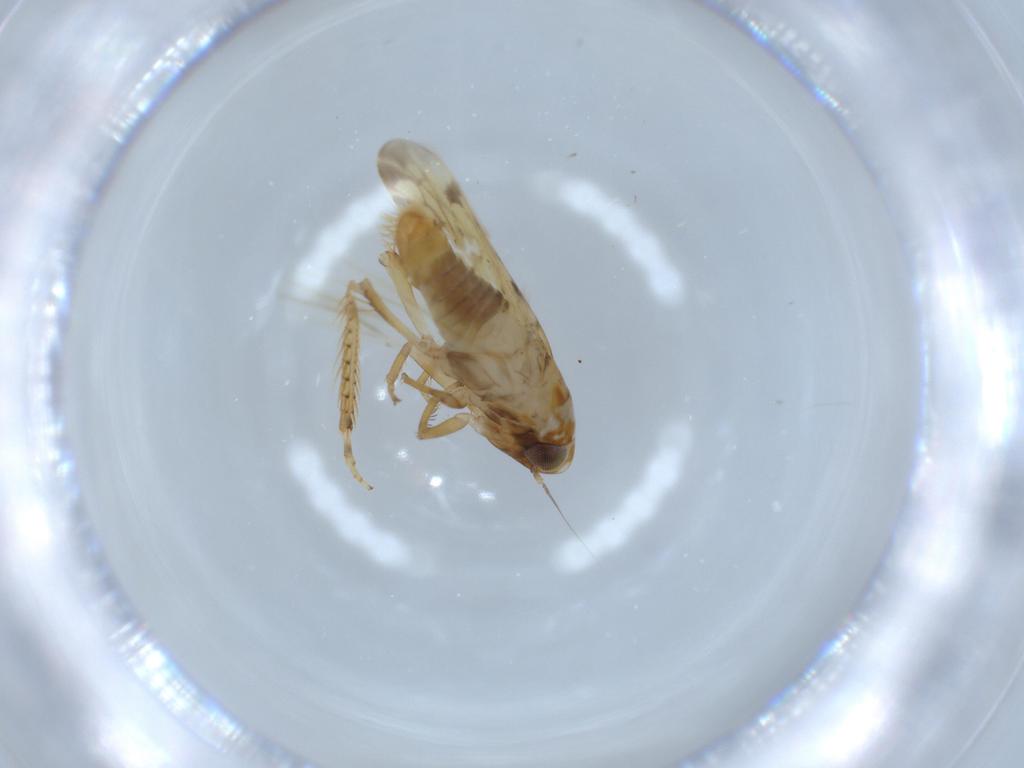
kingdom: Animalia
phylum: Arthropoda
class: Insecta
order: Hemiptera
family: Cicadellidae
